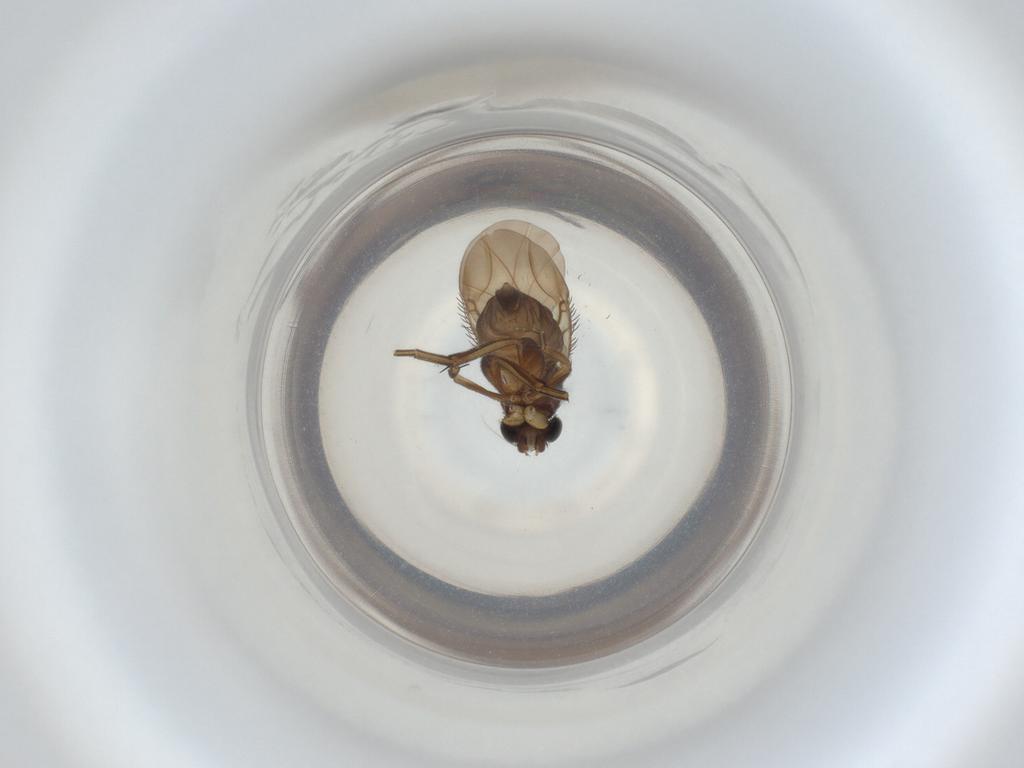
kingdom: Animalia
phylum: Arthropoda
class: Insecta
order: Diptera
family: Phoridae
